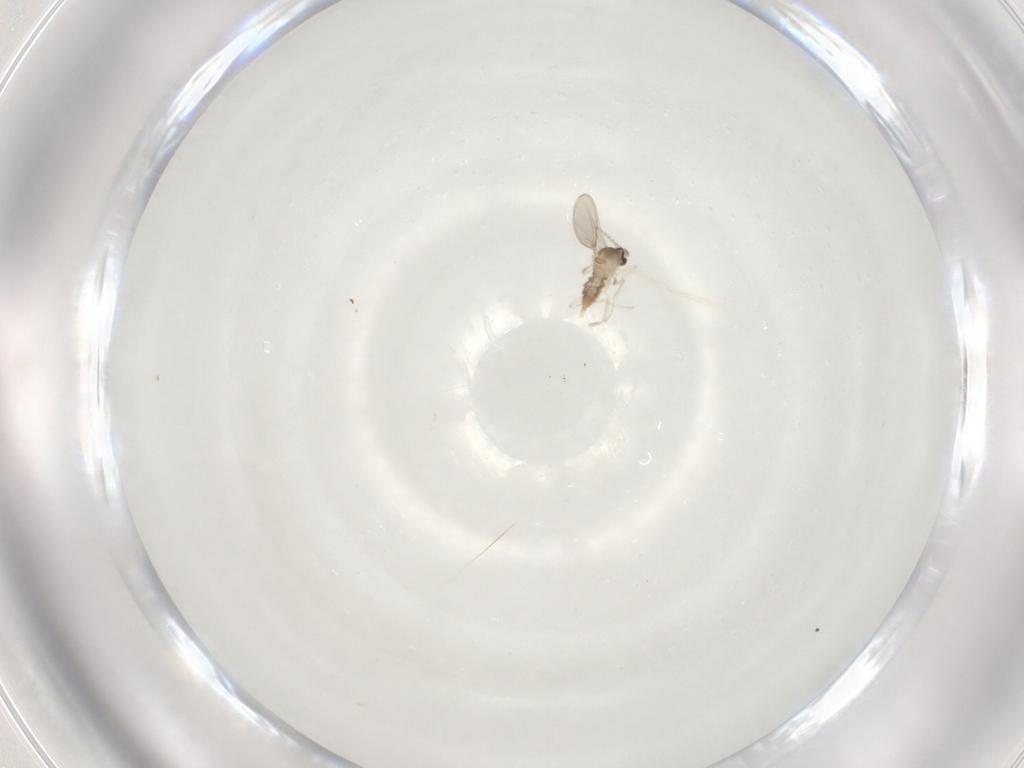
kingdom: Animalia
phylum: Arthropoda
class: Insecta
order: Diptera
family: Cecidomyiidae
